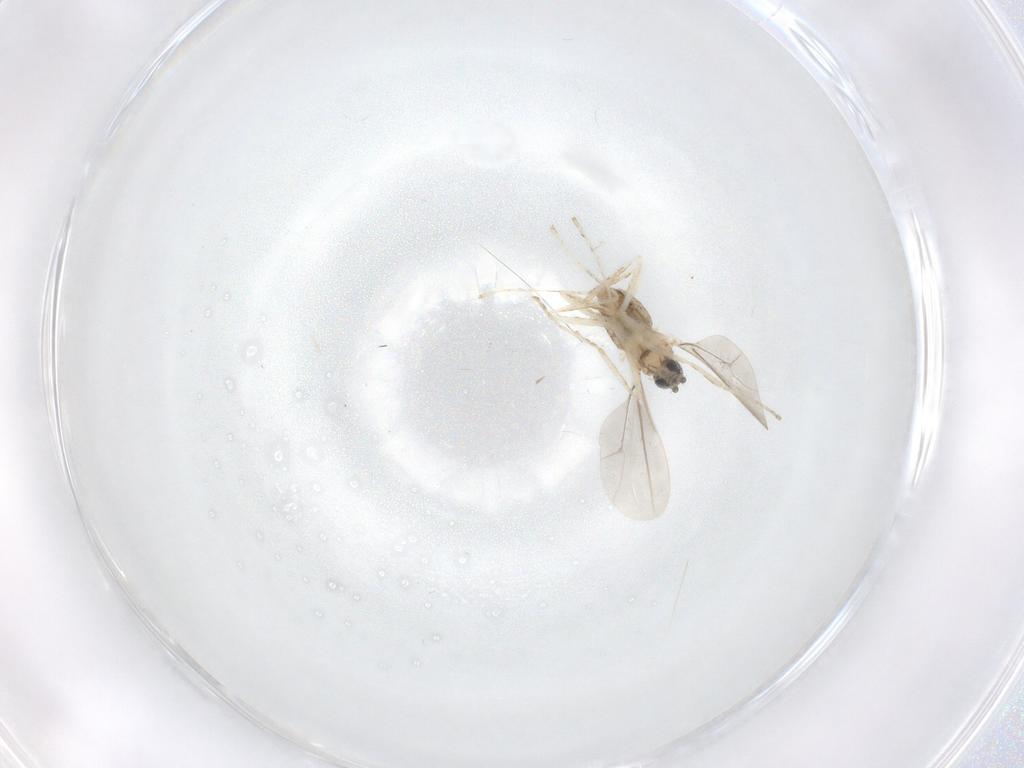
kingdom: Animalia
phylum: Arthropoda
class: Insecta
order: Diptera
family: Cecidomyiidae
